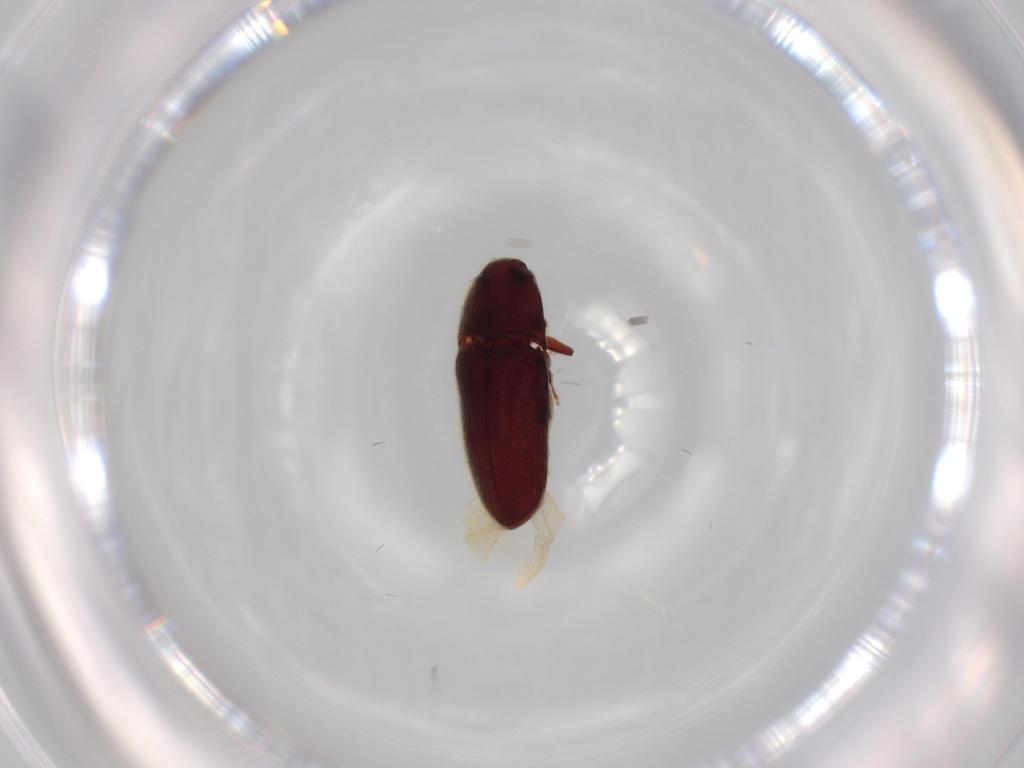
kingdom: Animalia
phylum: Arthropoda
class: Insecta
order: Coleoptera
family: Throscidae
